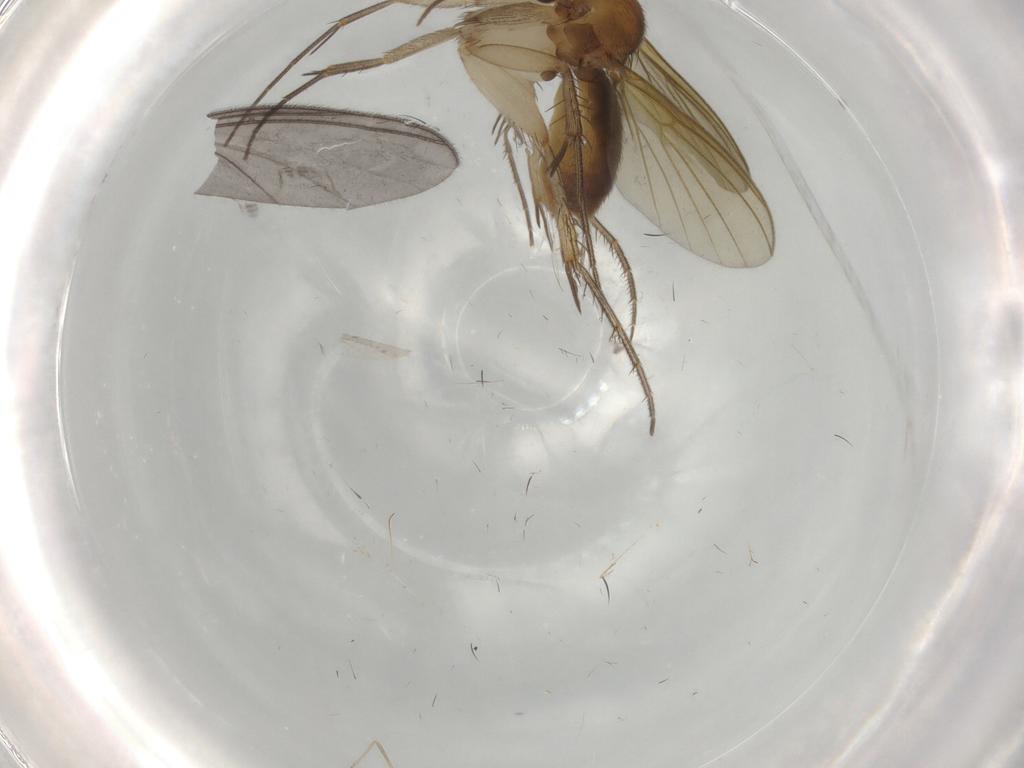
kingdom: Animalia
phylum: Arthropoda
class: Insecta
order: Diptera
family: Mycetophilidae
